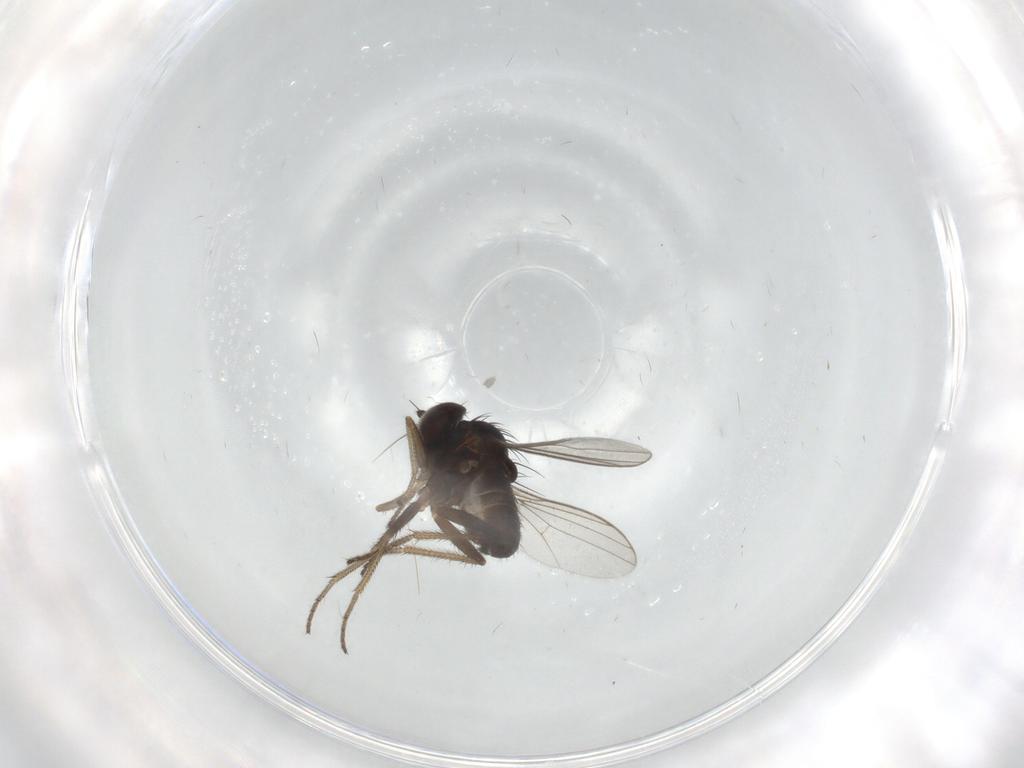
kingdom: Animalia
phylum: Arthropoda
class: Insecta
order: Diptera
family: Dolichopodidae
